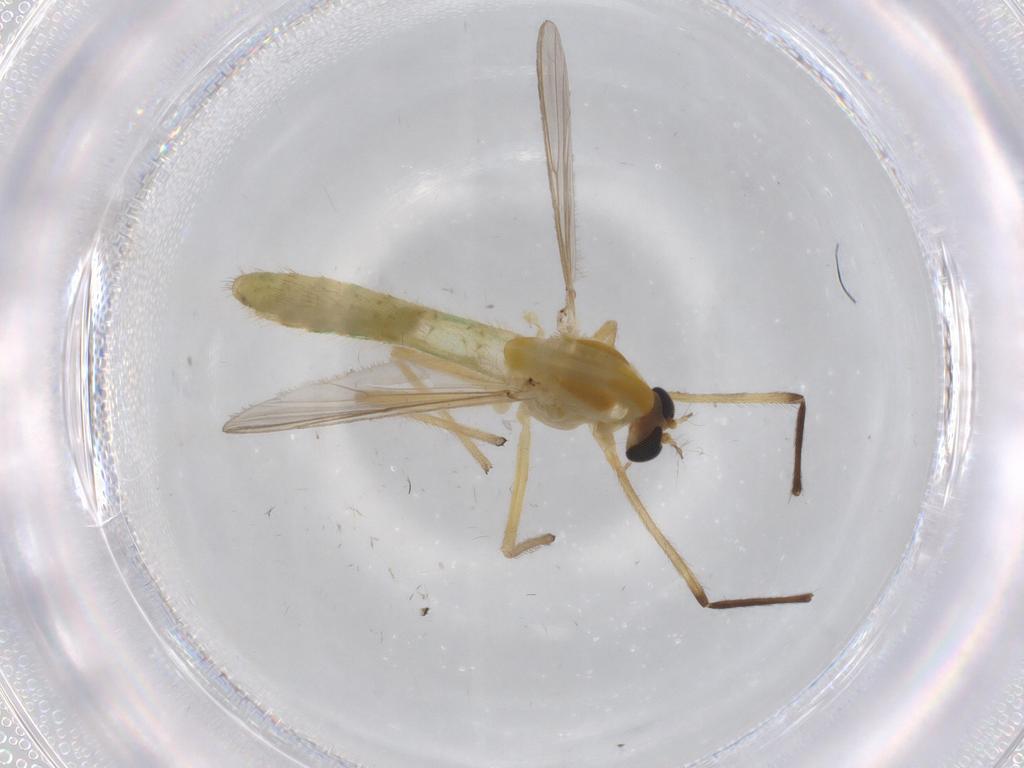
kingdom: Animalia
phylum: Arthropoda
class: Insecta
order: Diptera
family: Chironomidae
